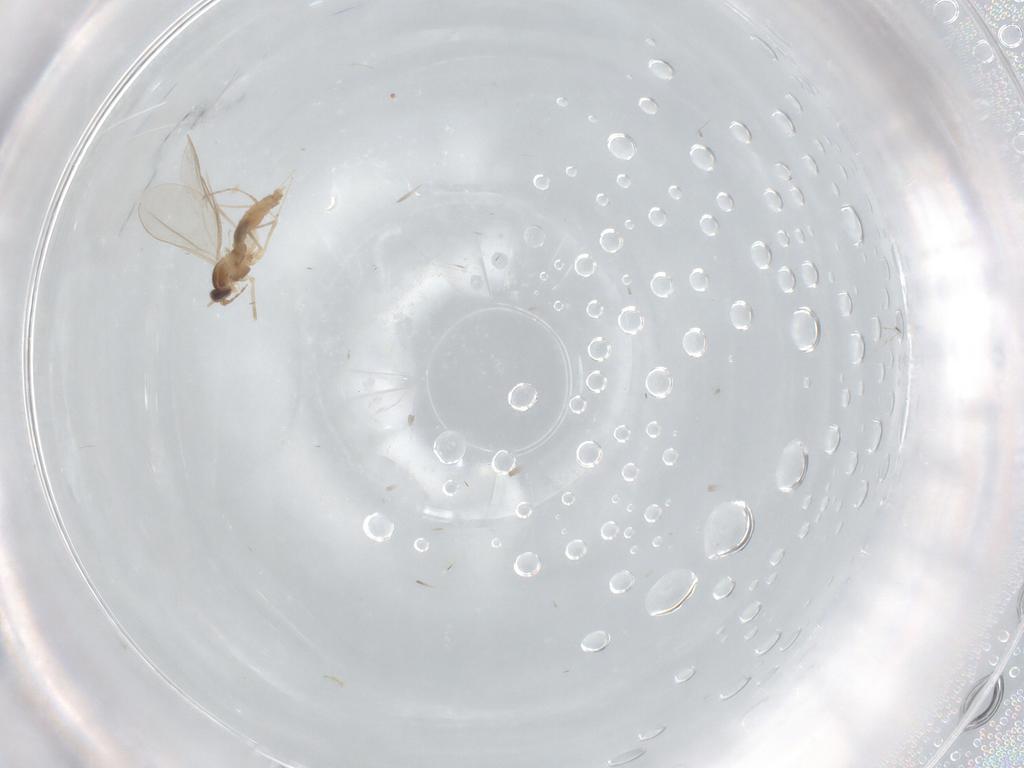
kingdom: Animalia
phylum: Arthropoda
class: Insecta
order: Diptera
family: Cecidomyiidae
